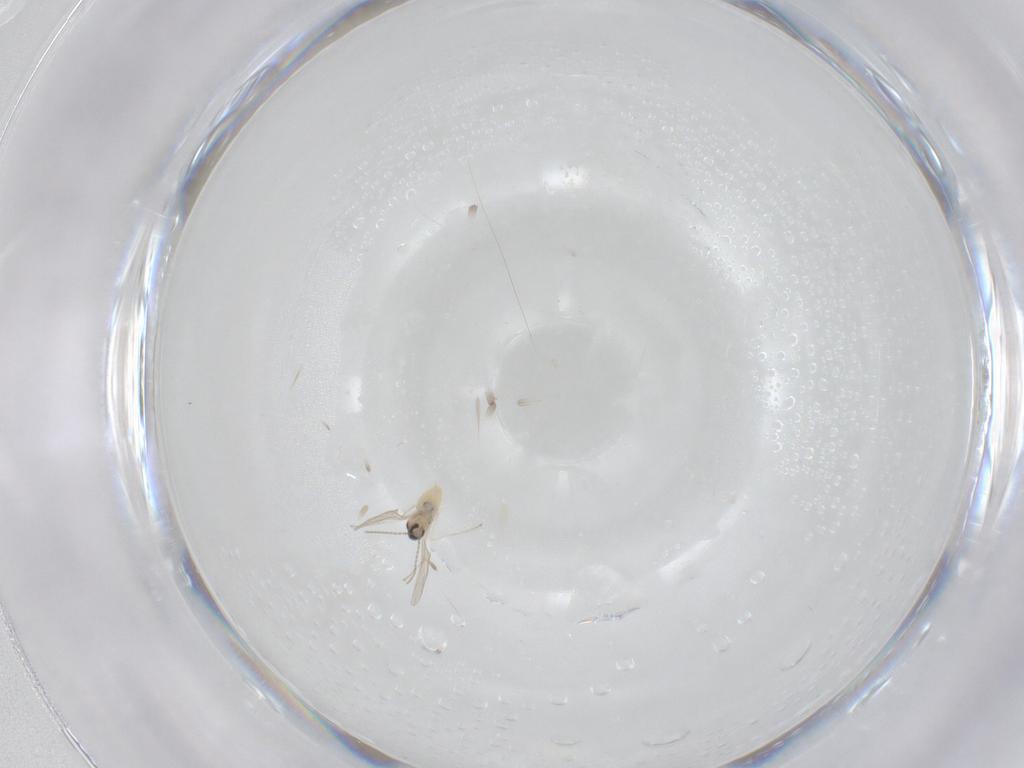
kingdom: Animalia
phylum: Arthropoda
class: Insecta
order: Diptera
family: Cecidomyiidae
